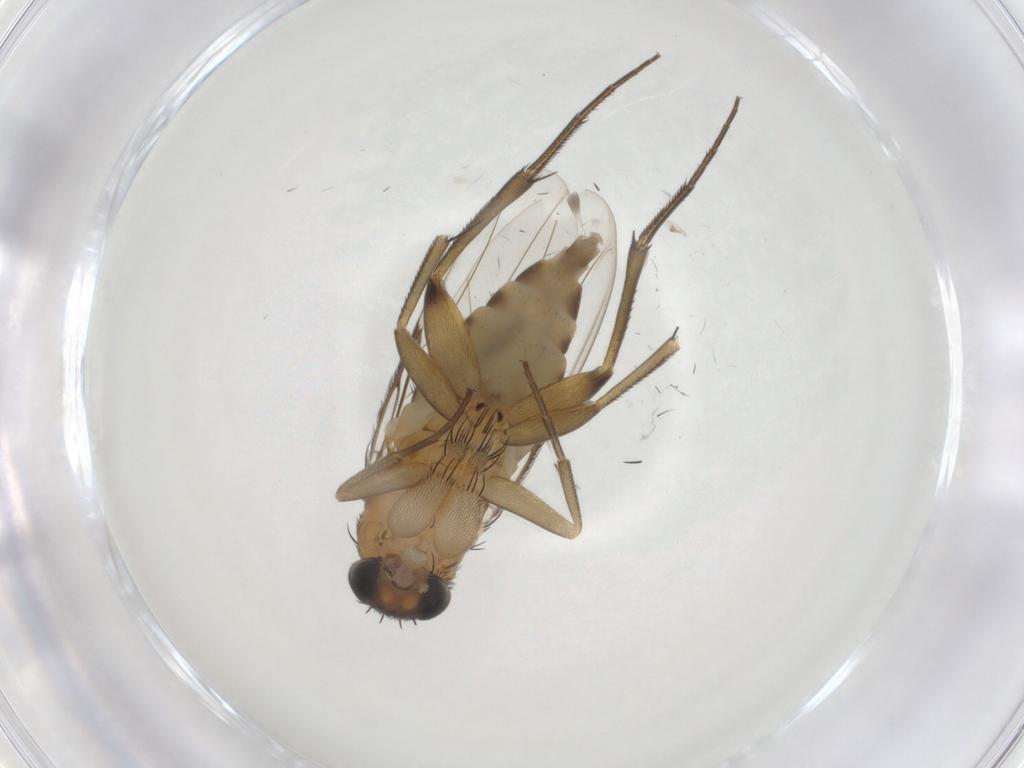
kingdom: Animalia
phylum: Arthropoda
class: Insecta
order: Diptera
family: Phoridae
